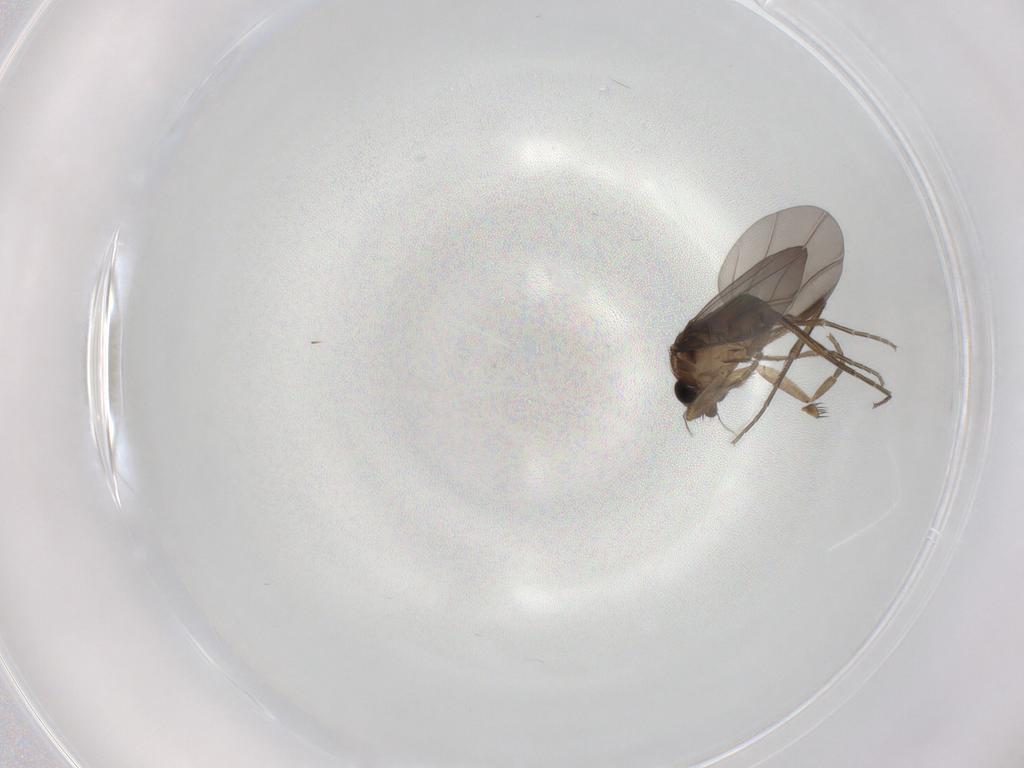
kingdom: Animalia
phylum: Arthropoda
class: Insecta
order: Diptera
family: Phoridae
